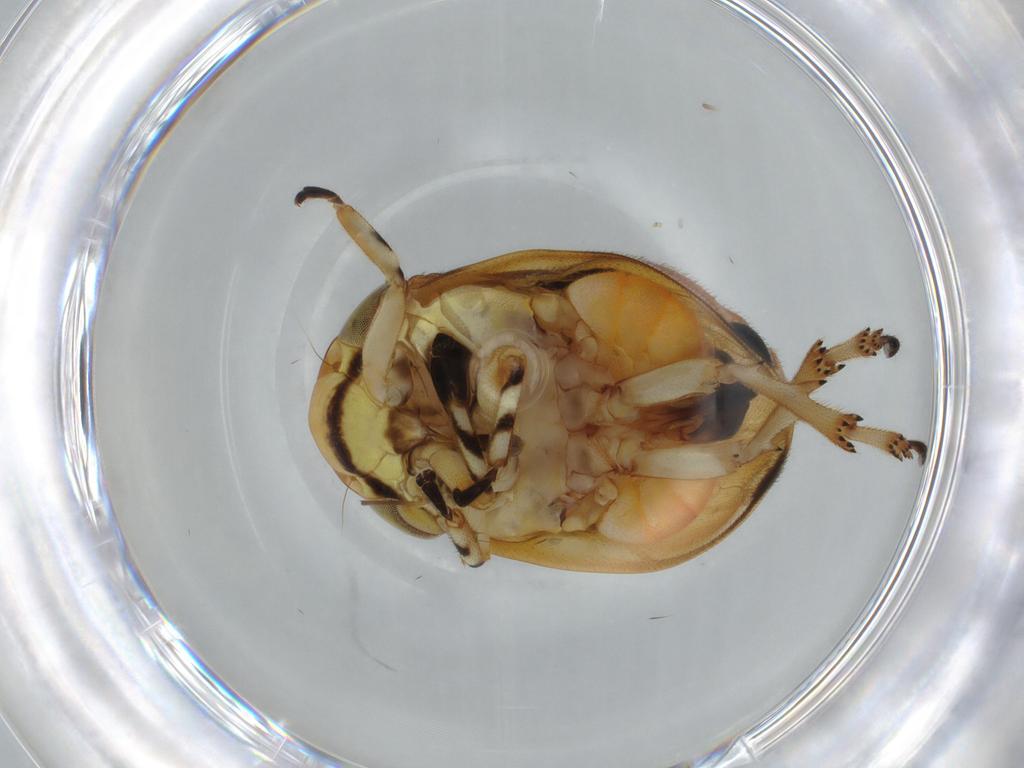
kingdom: Animalia
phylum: Arthropoda
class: Insecta
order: Hemiptera
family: Clastopteridae
